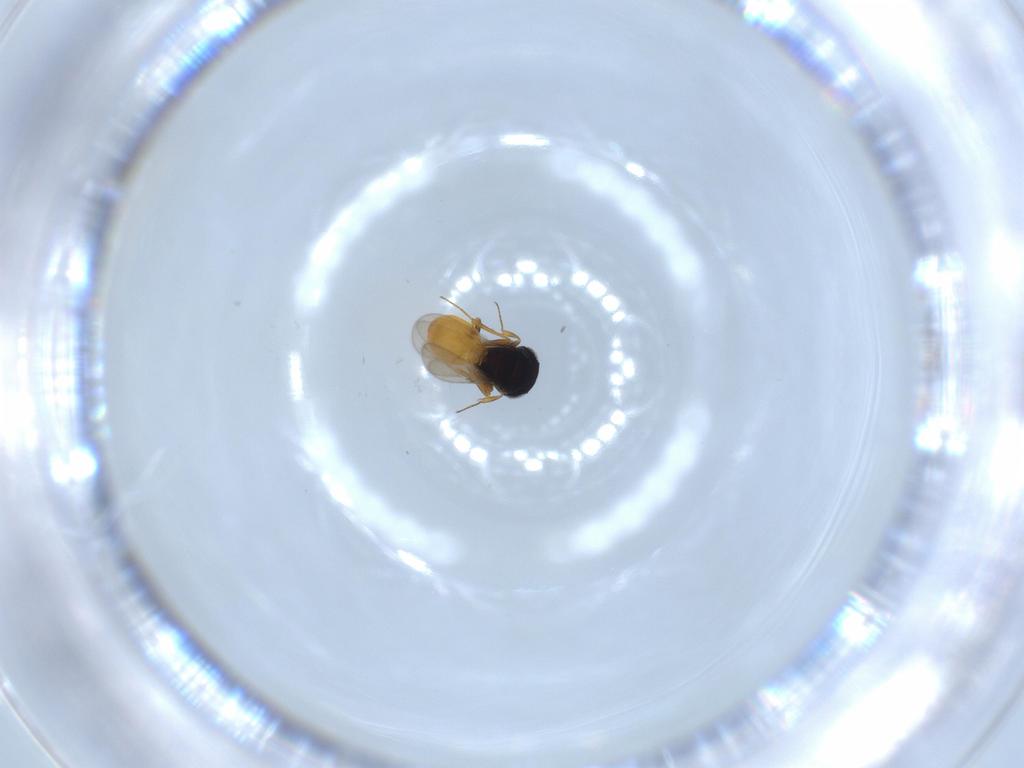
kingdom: Animalia
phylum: Arthropoda
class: Insecta
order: Hymenoptera
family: Scelionidae
